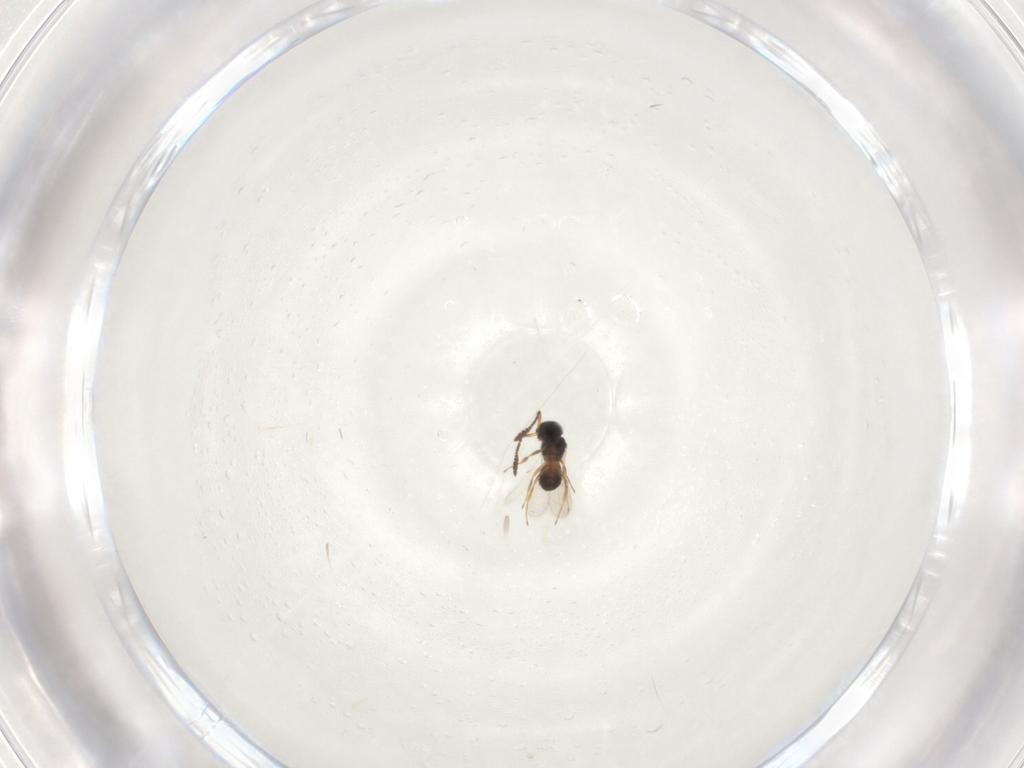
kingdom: Animalia
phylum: Arthropoda
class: Insecta
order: Hymenoptera
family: Scelionidae
